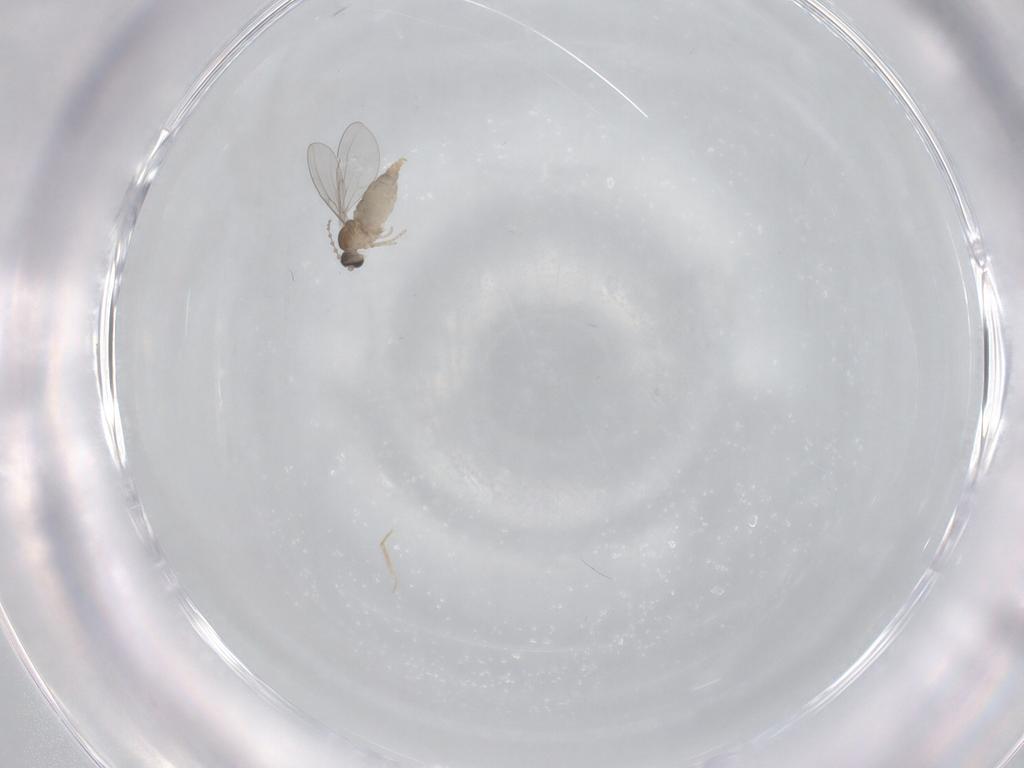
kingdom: Animalia
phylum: Arthropoda
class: Insecta
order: Diptera
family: Cecidomyiidae
